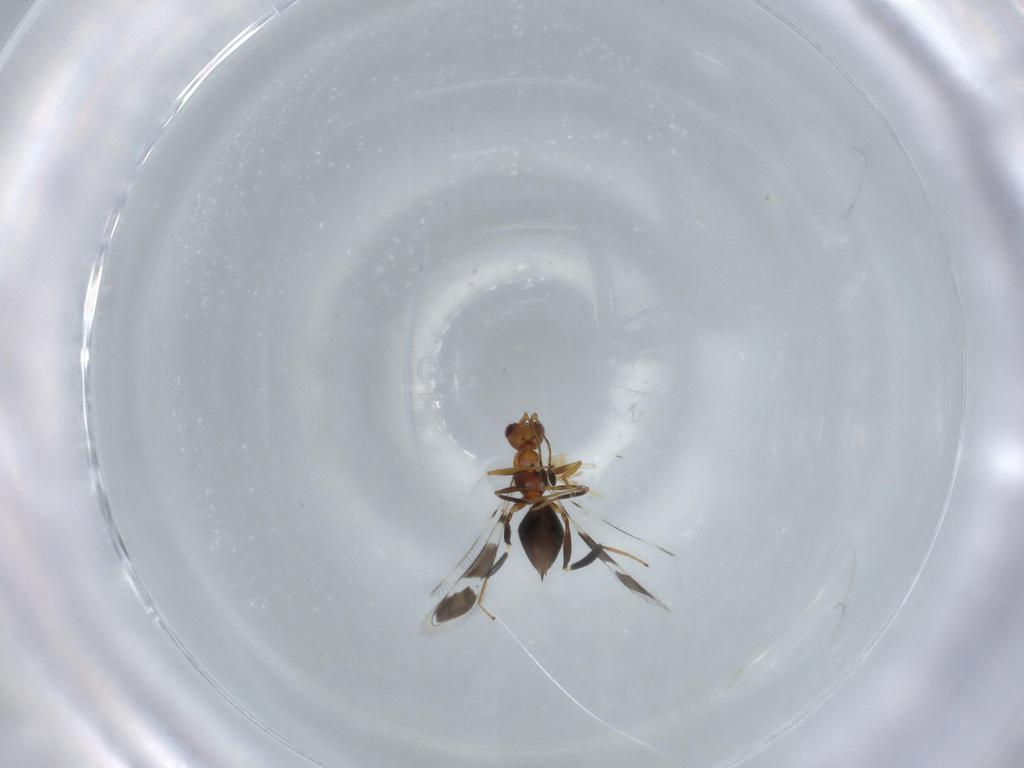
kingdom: Animalia
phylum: Arthropoda
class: Insecta
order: Hymenoptera
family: Mymaridae
